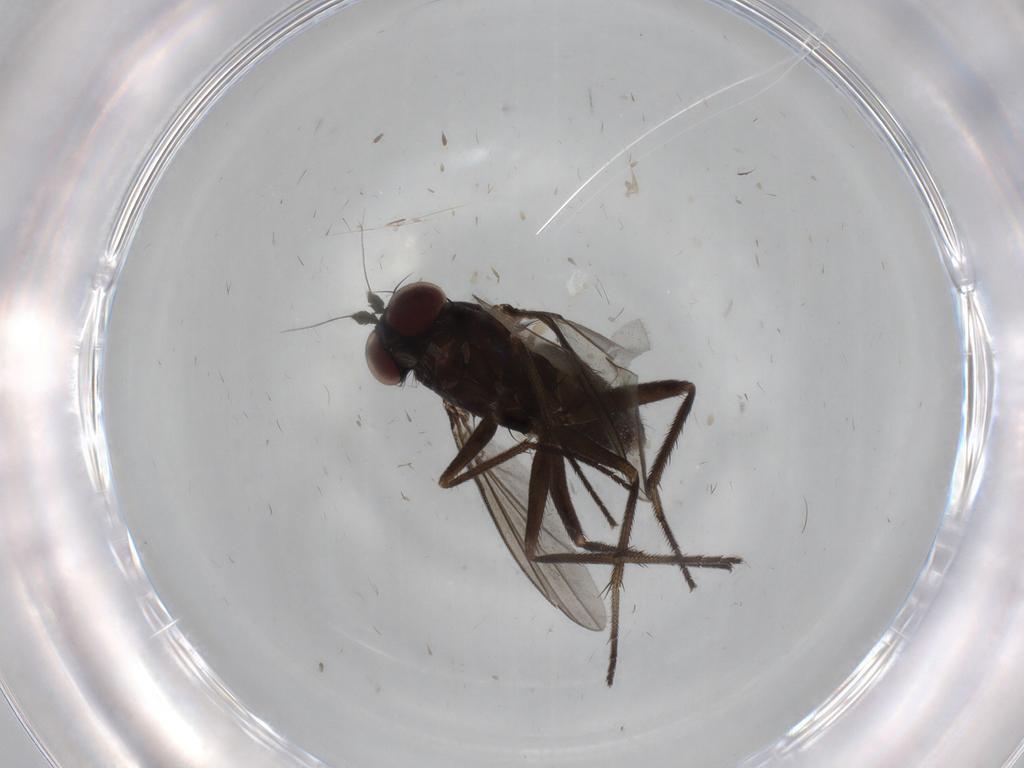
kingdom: Animalia
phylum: Arthropoda
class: Insecta
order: Diptera
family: Dolichopodidae
